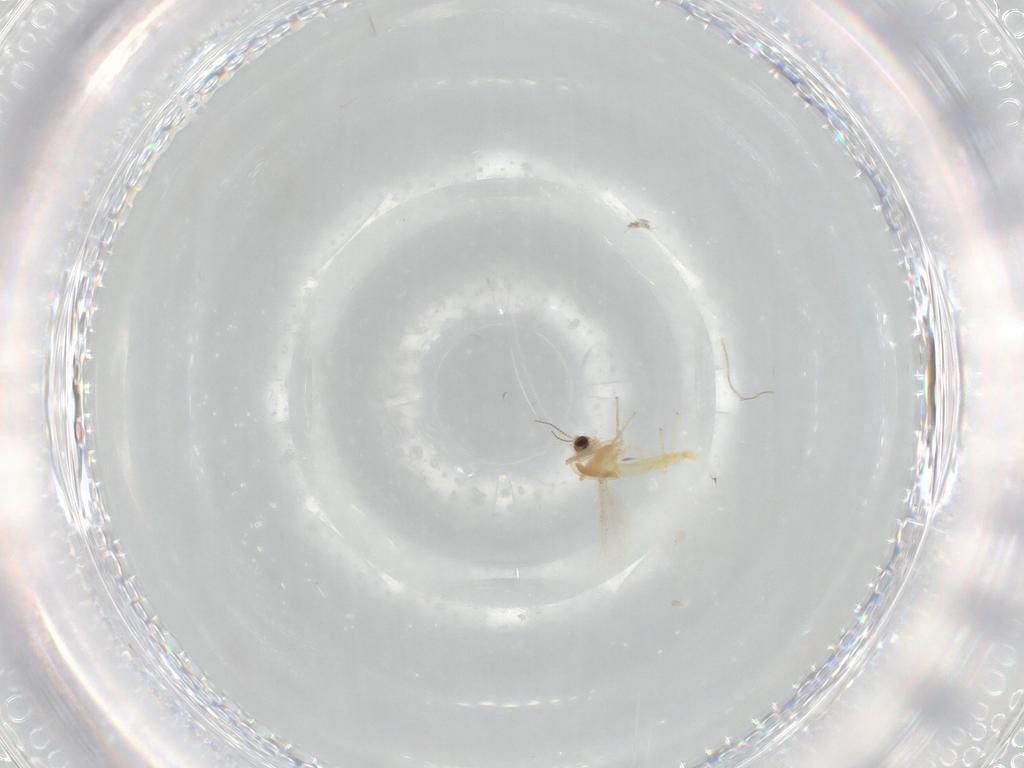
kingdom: Animalia
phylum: Arthropoda
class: Insecta
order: Diptera
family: Chironomidae
